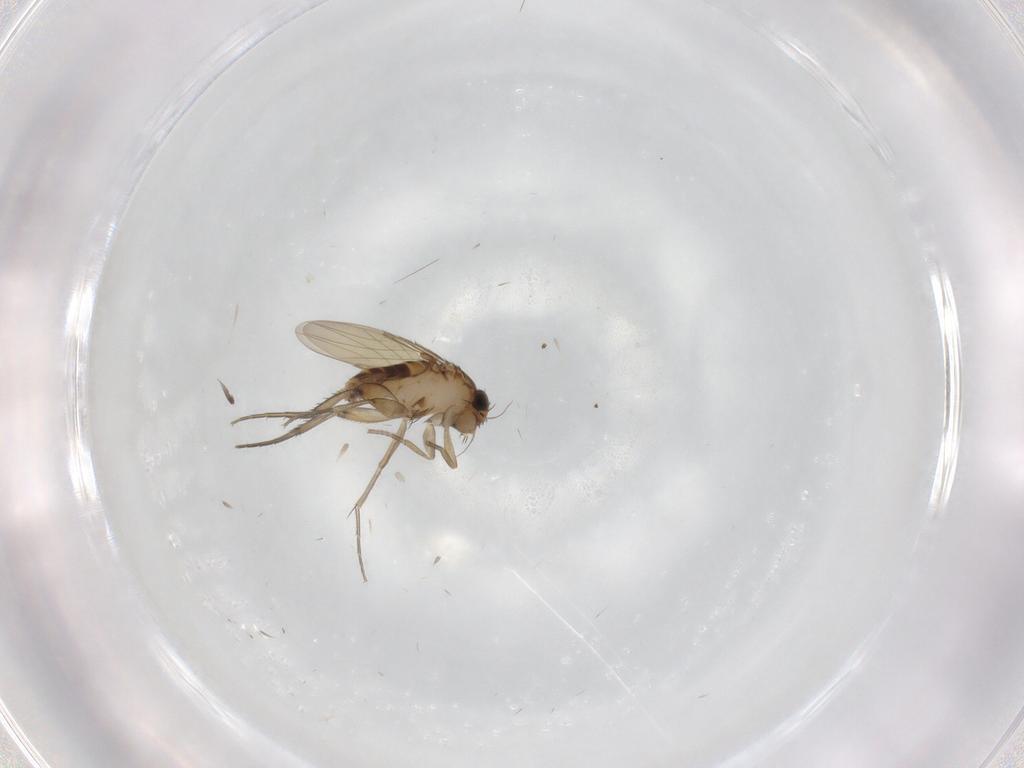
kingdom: Animalia
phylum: Arthropoda
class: Insecta
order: Diptera
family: Phoridae
